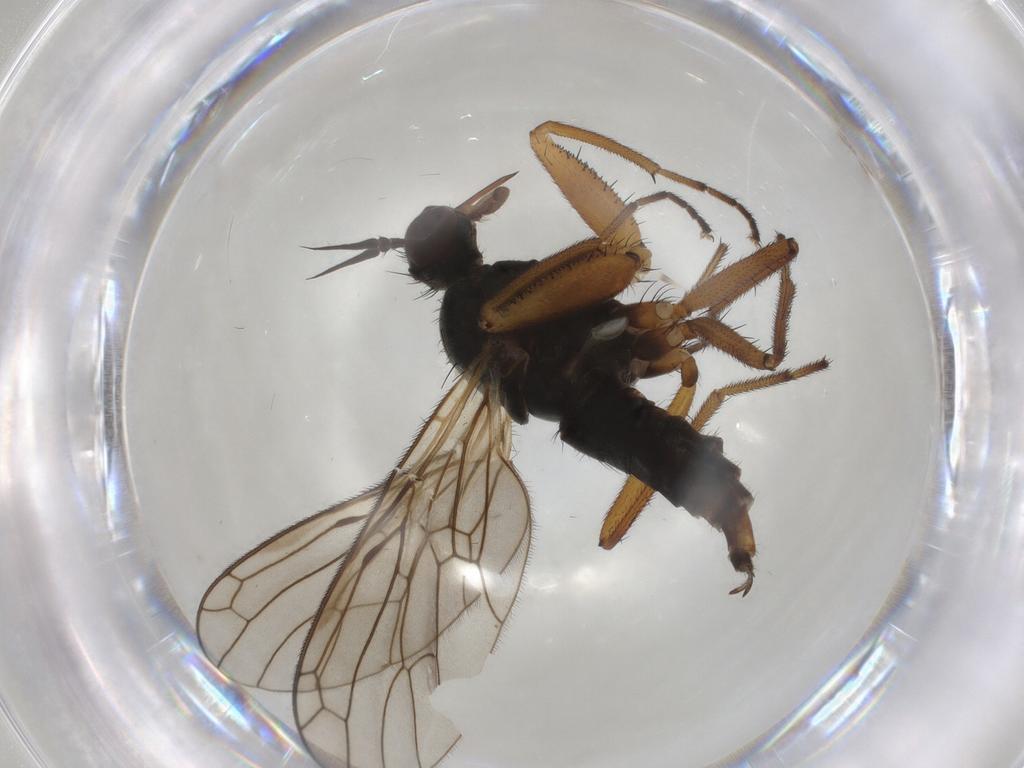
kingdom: Animalia
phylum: Arthropoda
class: Insecta
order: Diptera
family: Empididae
